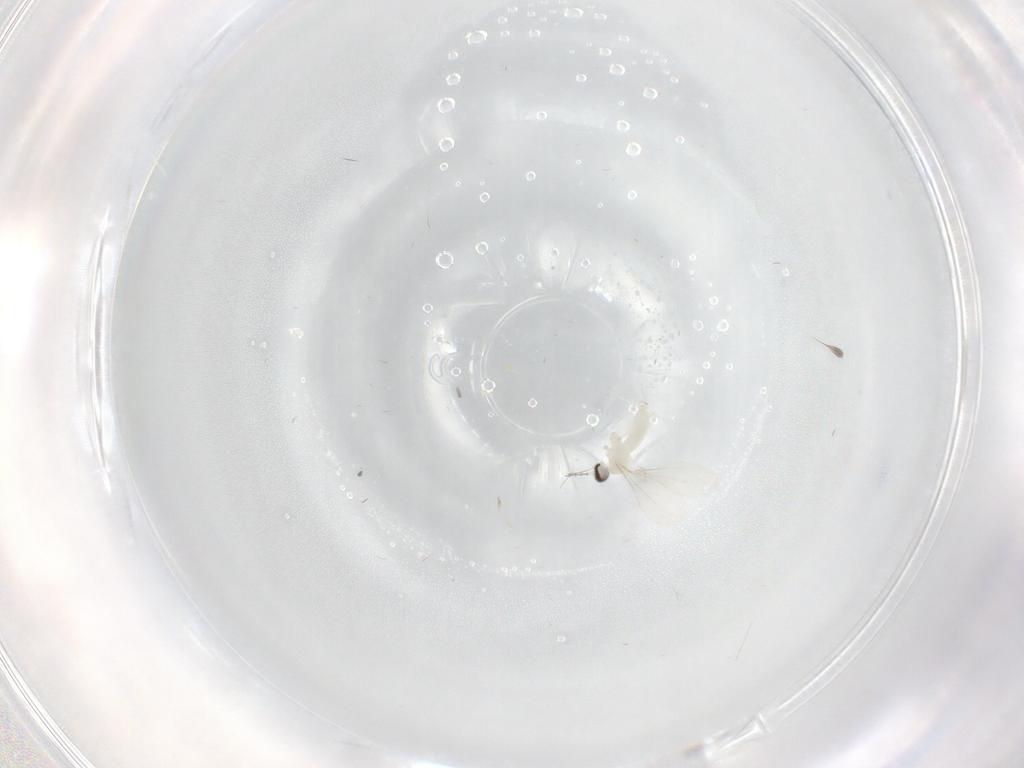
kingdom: Animalia
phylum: Arthropoda
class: Insecta
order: Diptera
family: Cecidomyiidae
